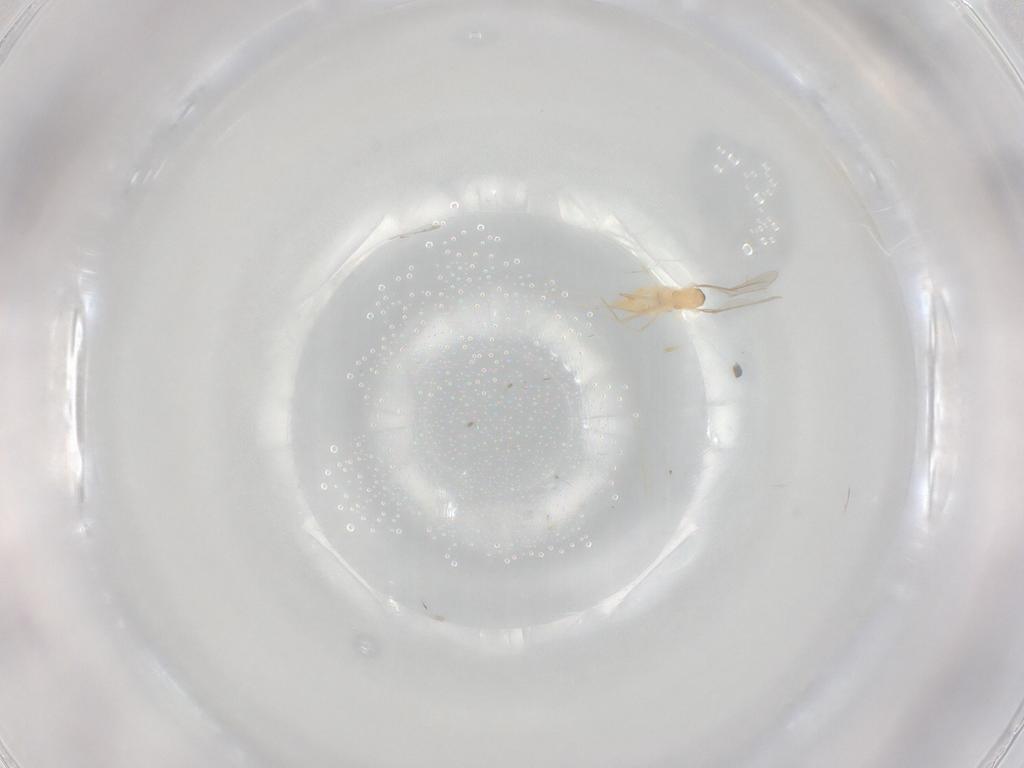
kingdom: Animalia
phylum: Arthropoda
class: Insecta
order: Diptera
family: Cecidomyiidae
